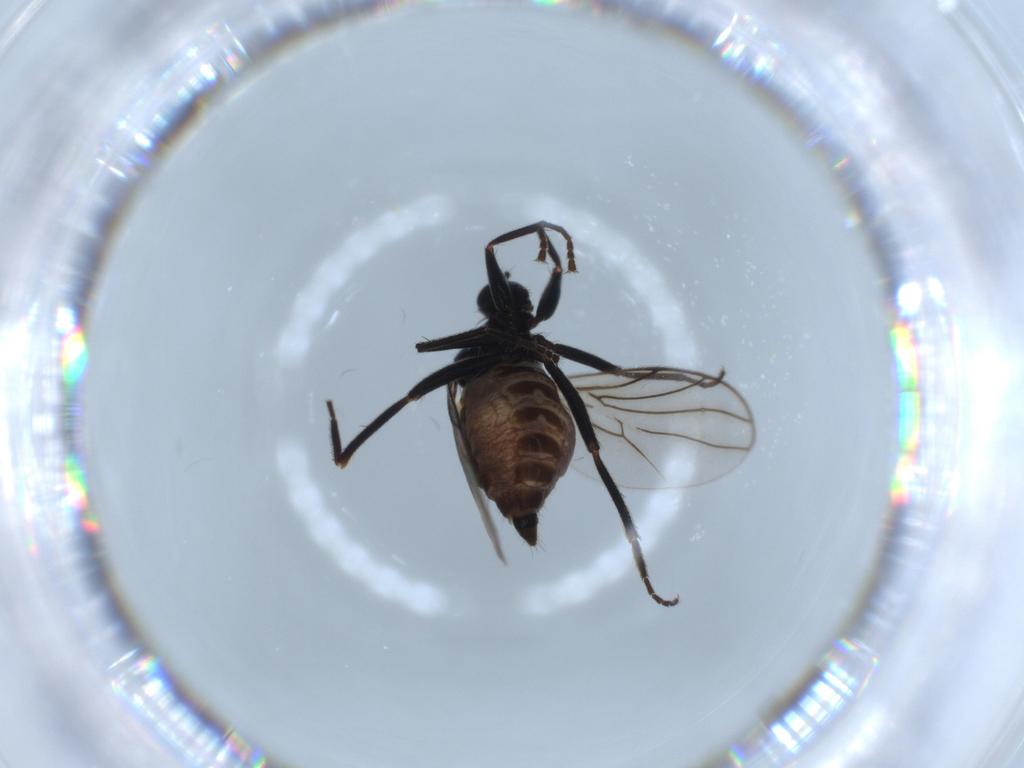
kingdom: Animalia
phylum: Arthropoda
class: Insecta
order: Diptera
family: Hybotidae
